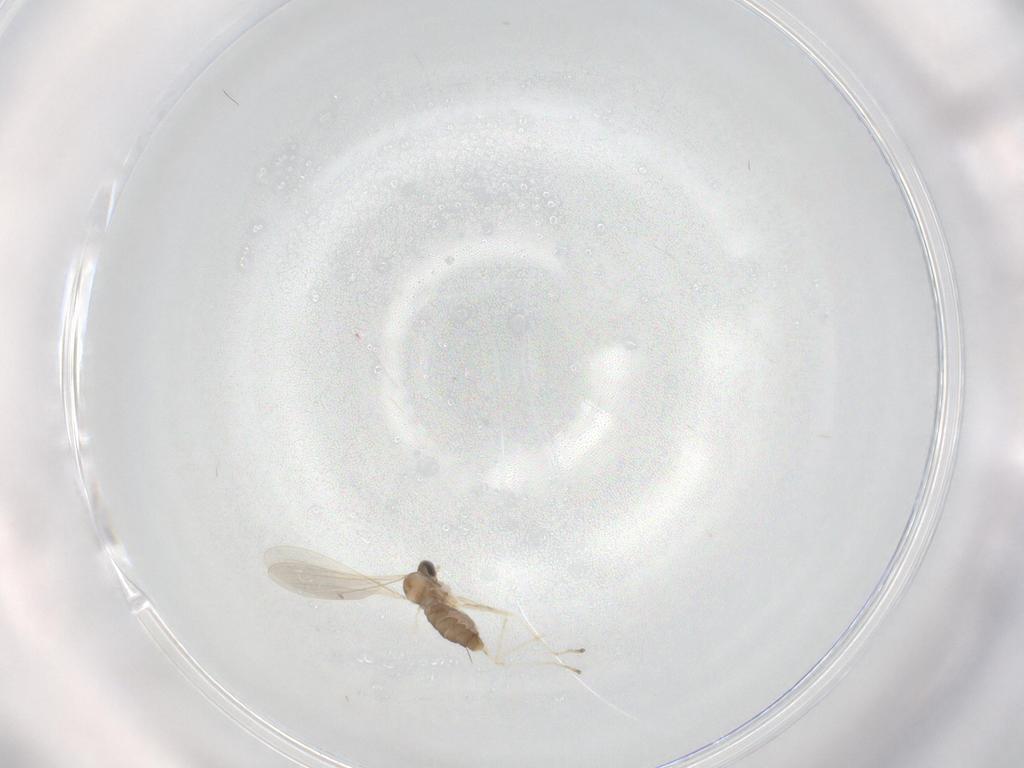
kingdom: Animalia
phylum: Arthropoda
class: Insecta
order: Diptera
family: Cecidomyiidae
